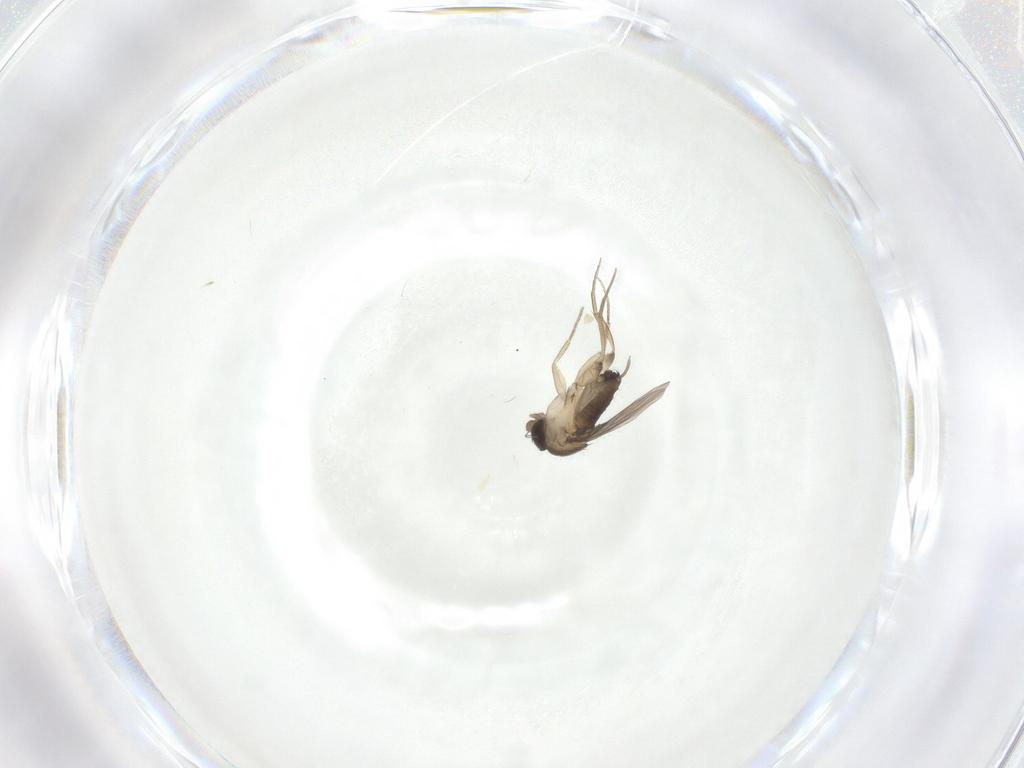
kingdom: Animalia
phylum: Arthropoda
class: Insecta
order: Diptera
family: Phoridae
